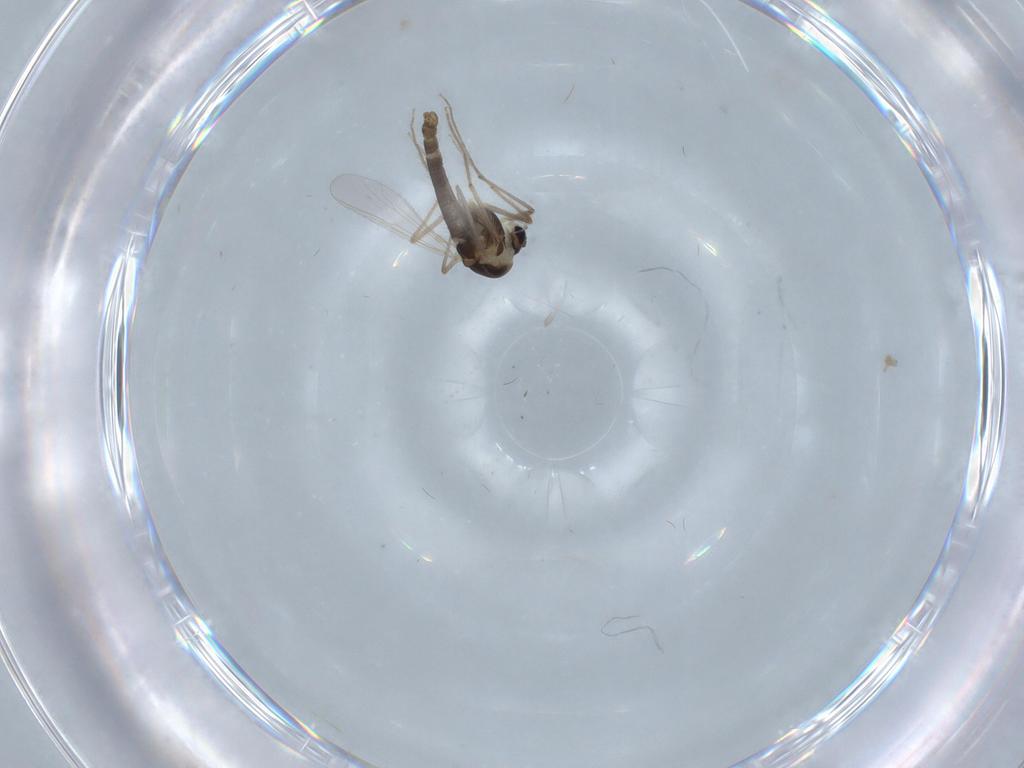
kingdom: Animalia
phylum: Arthropoda
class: Insecta
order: Diptera
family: Chironomidae
